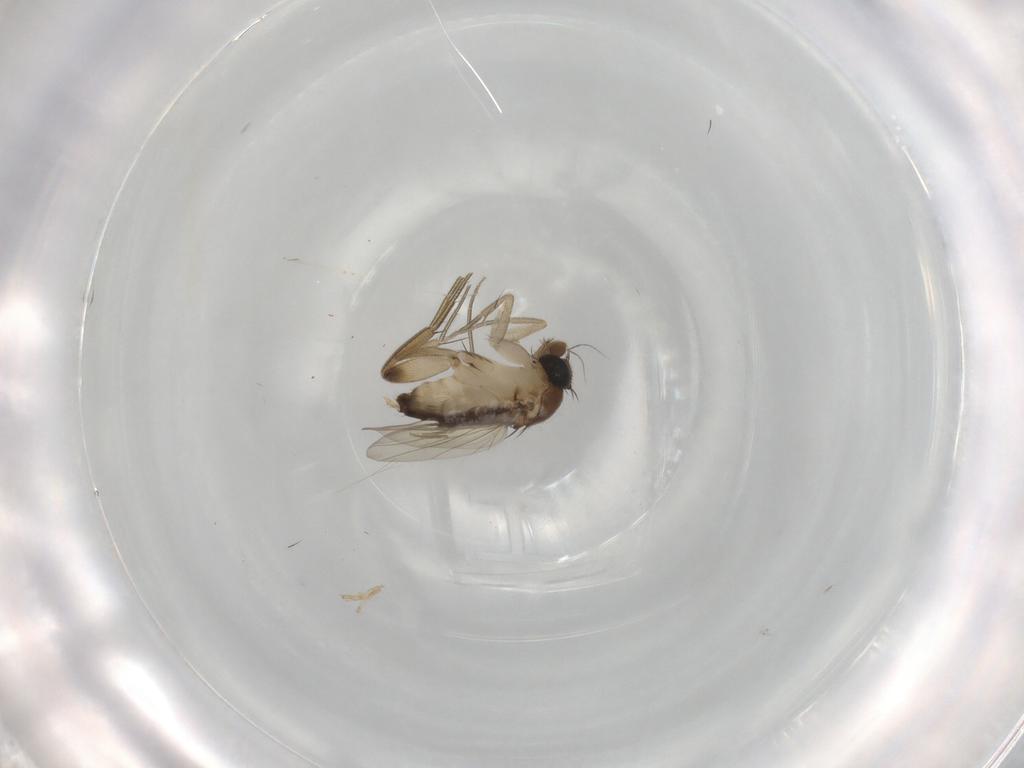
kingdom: Animalia
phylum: Arthropoda
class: Insecta
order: Diptera
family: Phoridae
